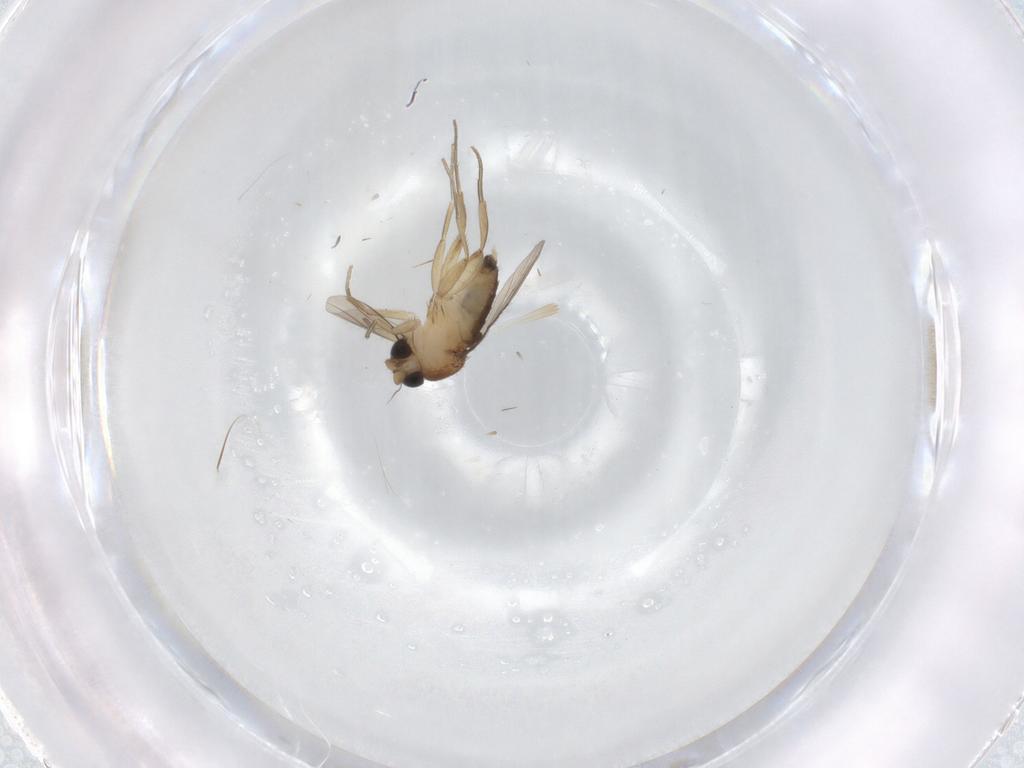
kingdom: Animalia
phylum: Arthropoda
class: Insecta
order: Diptera
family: Phoridae
